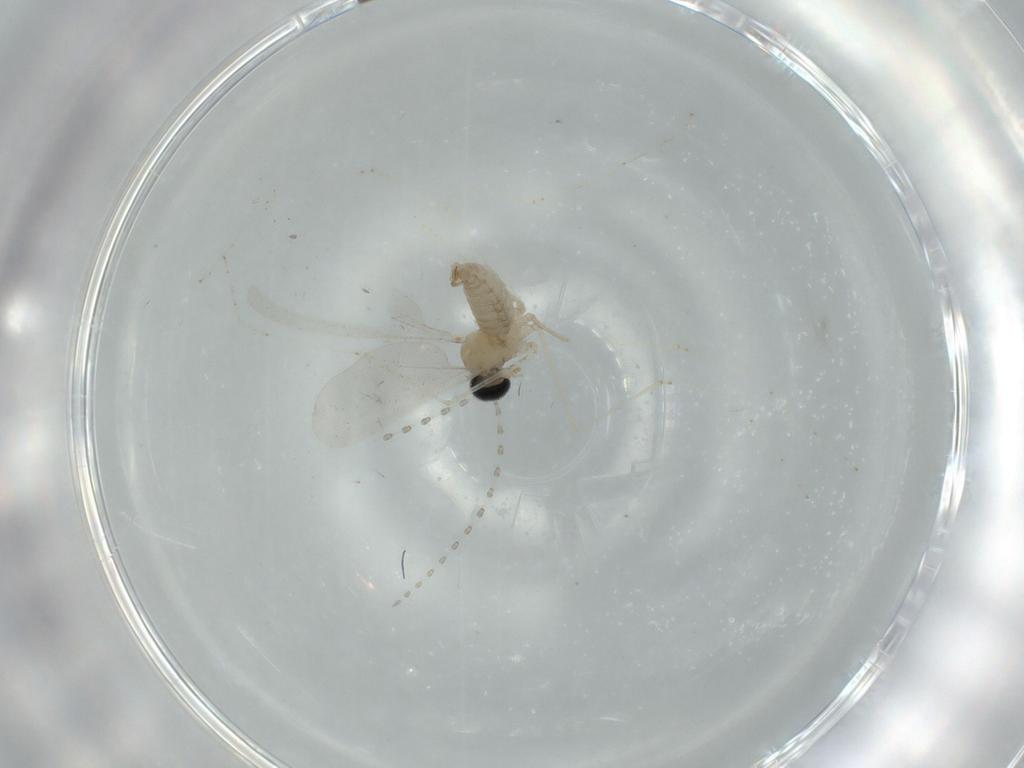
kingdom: Animalia
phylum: Arthropoda
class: Insecta
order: Diptera
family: Cecidomyiidae
